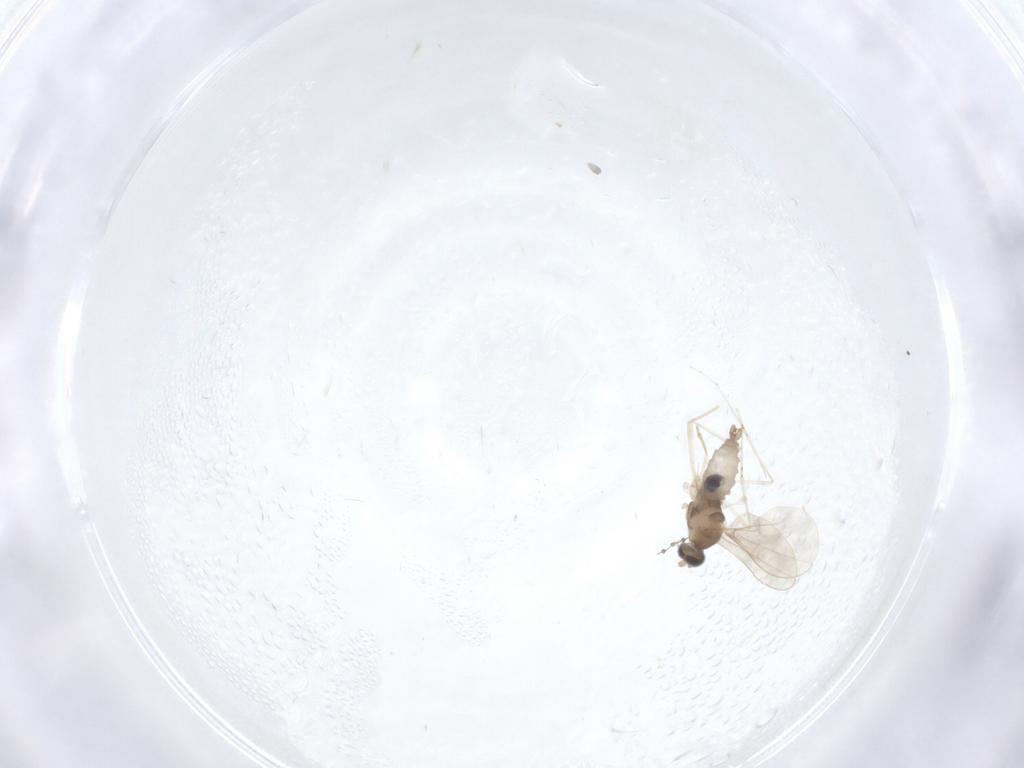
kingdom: Animalia
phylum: Arthropoda
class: Insecta
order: Diptera
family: Cecidomyiidae
